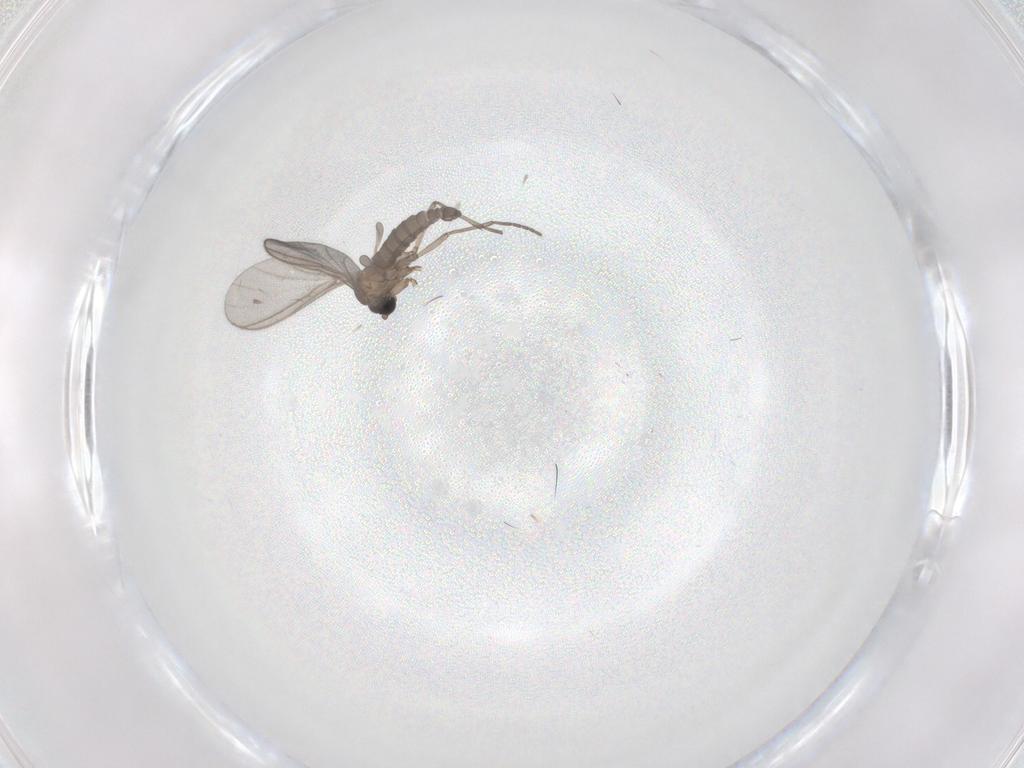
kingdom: Animalia
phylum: Arthropoda
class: Insecta
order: Diptera
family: Sciaridae
